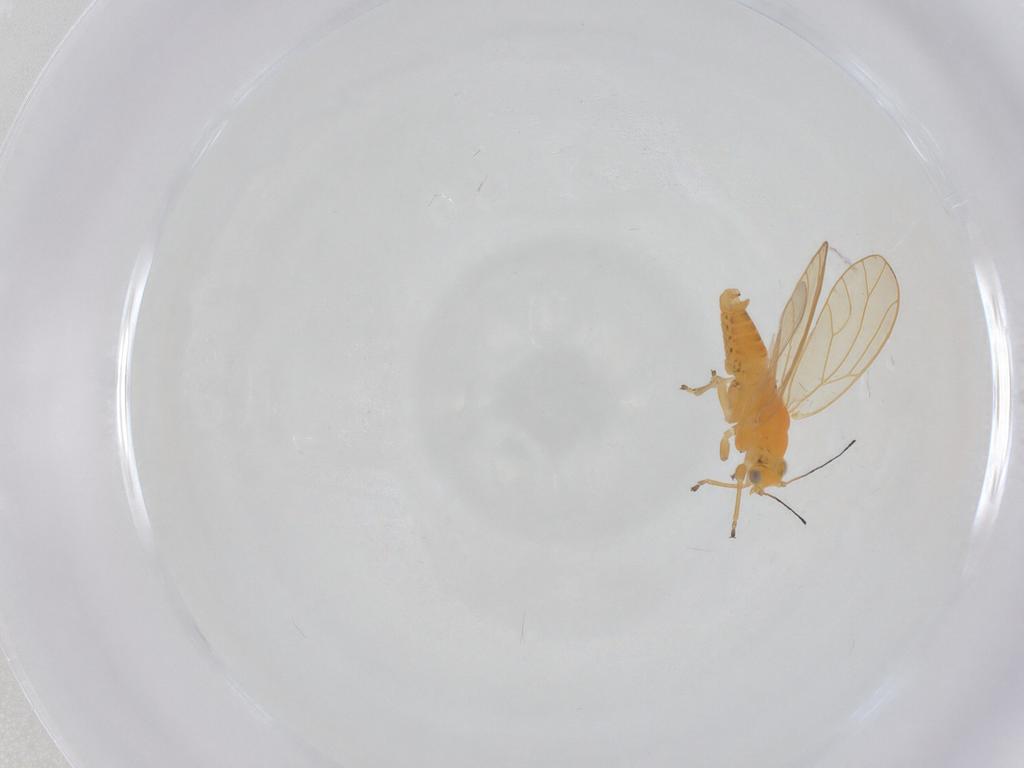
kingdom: Animalia
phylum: Arthropoda
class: Insecta
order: Hemiptera
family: Triozidae
